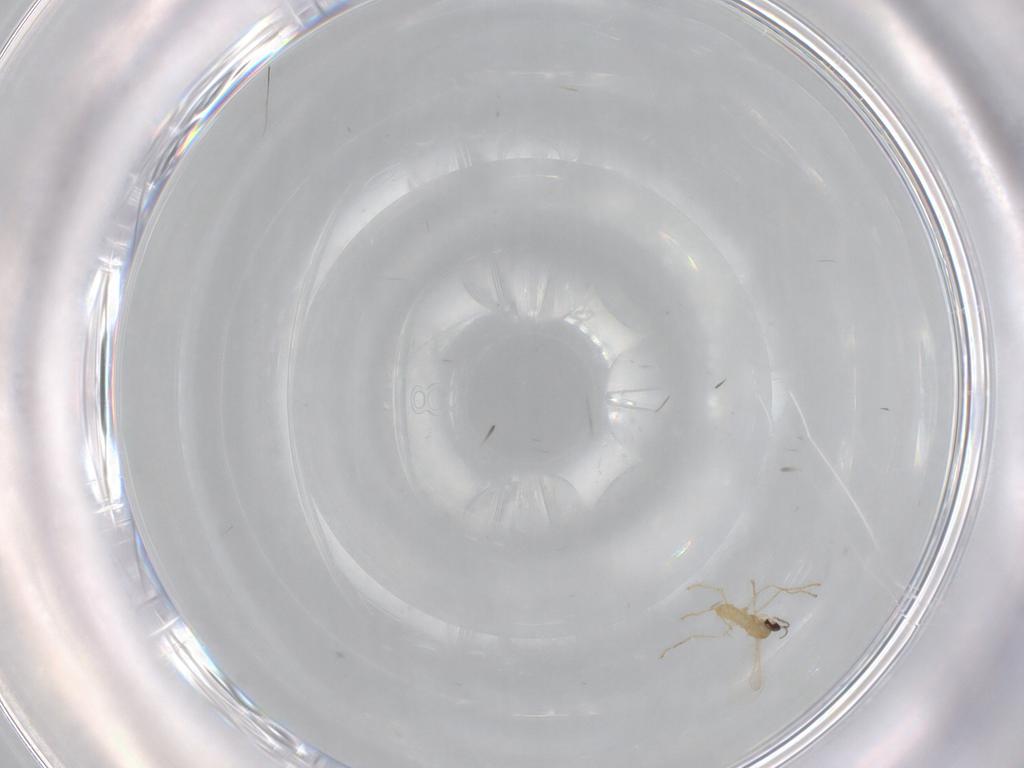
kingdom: Animalia
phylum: Arthropoda
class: Insecta
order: Diptera
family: Cecidomyiidae
